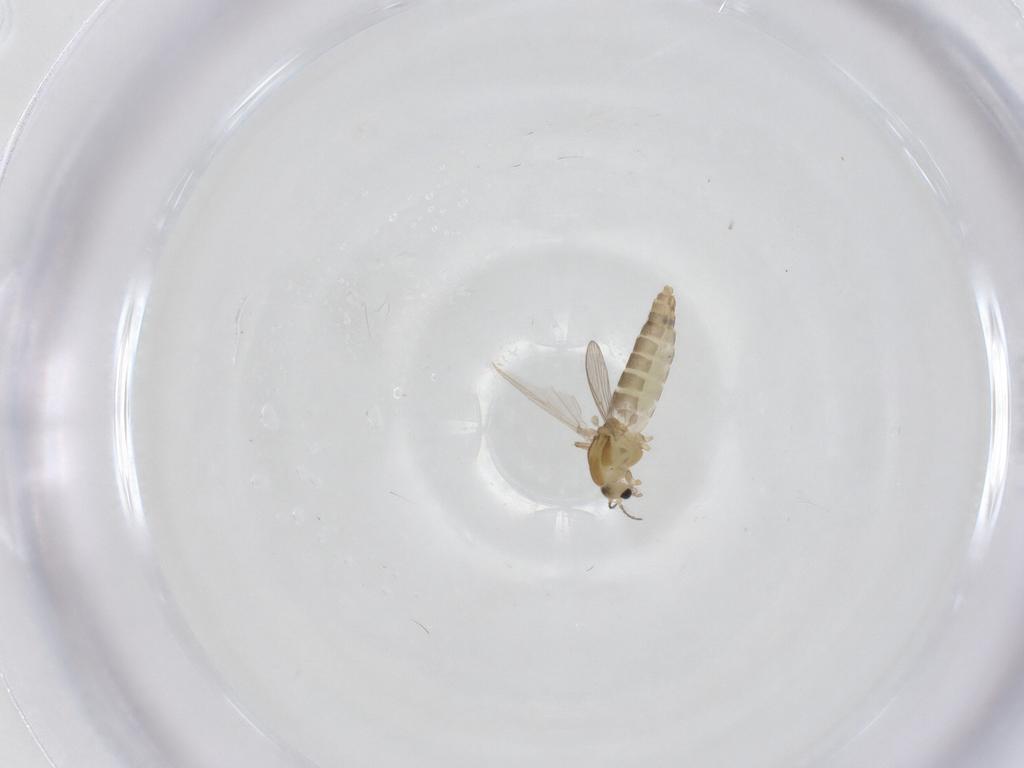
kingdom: Animalia
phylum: Arthropoda
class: Insecta
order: Diptera
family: Chironomidae
